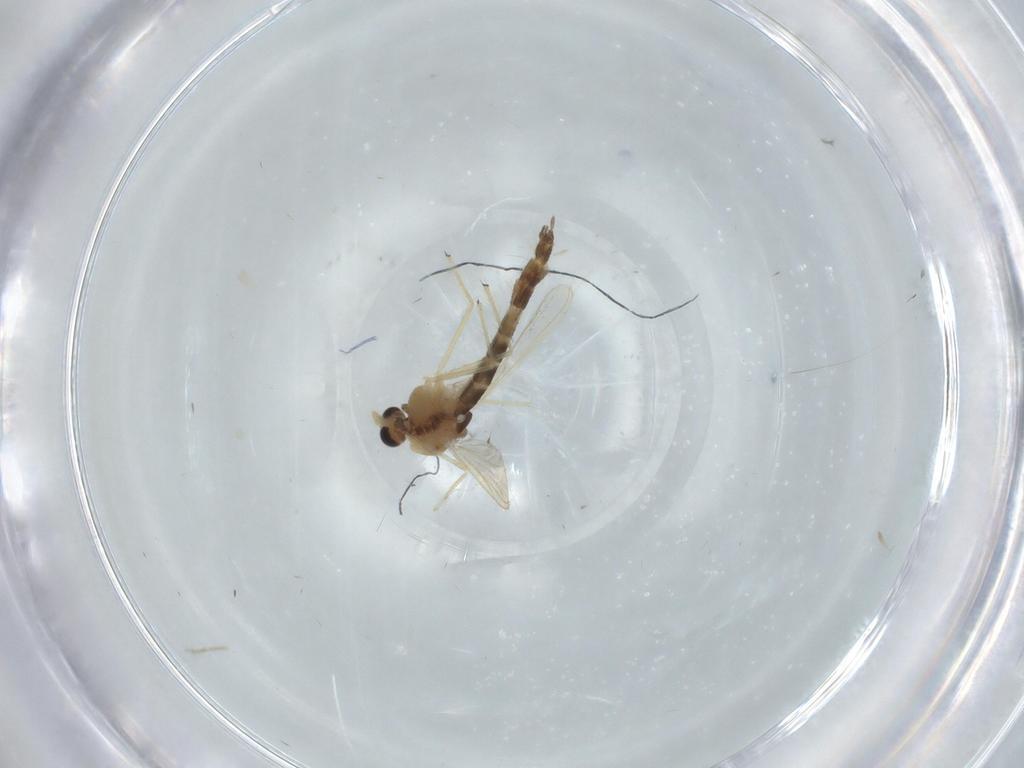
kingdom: Animalia
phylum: Arthropoda
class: Insecta
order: Diptera
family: Chironomidae
